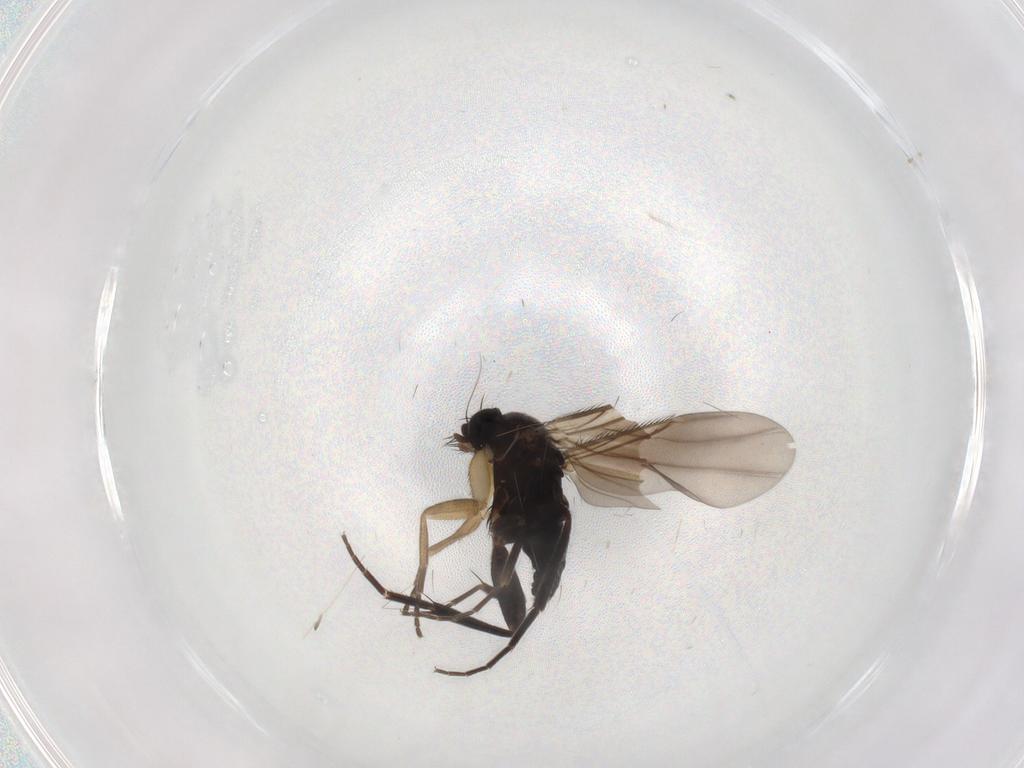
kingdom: Animalia
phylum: Arthropoda
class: Insecta
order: Diptera
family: Phoridae
